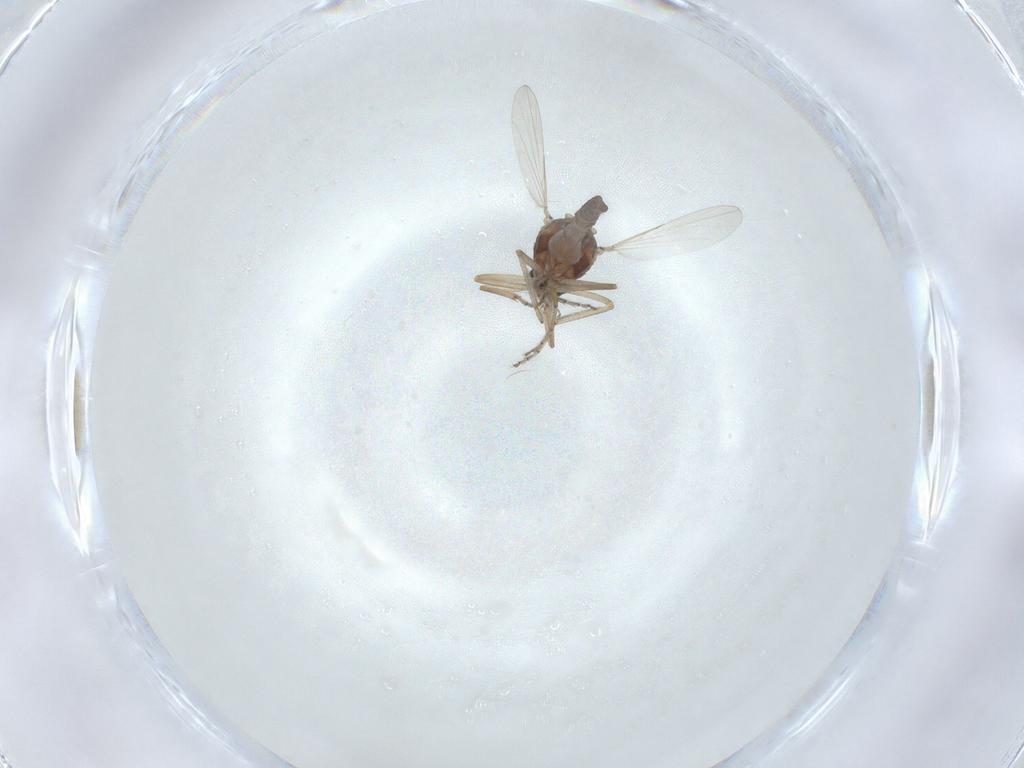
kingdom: Animalia
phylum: Arthropoda
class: Insecta
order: Diptera
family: Ceratopogonidae
